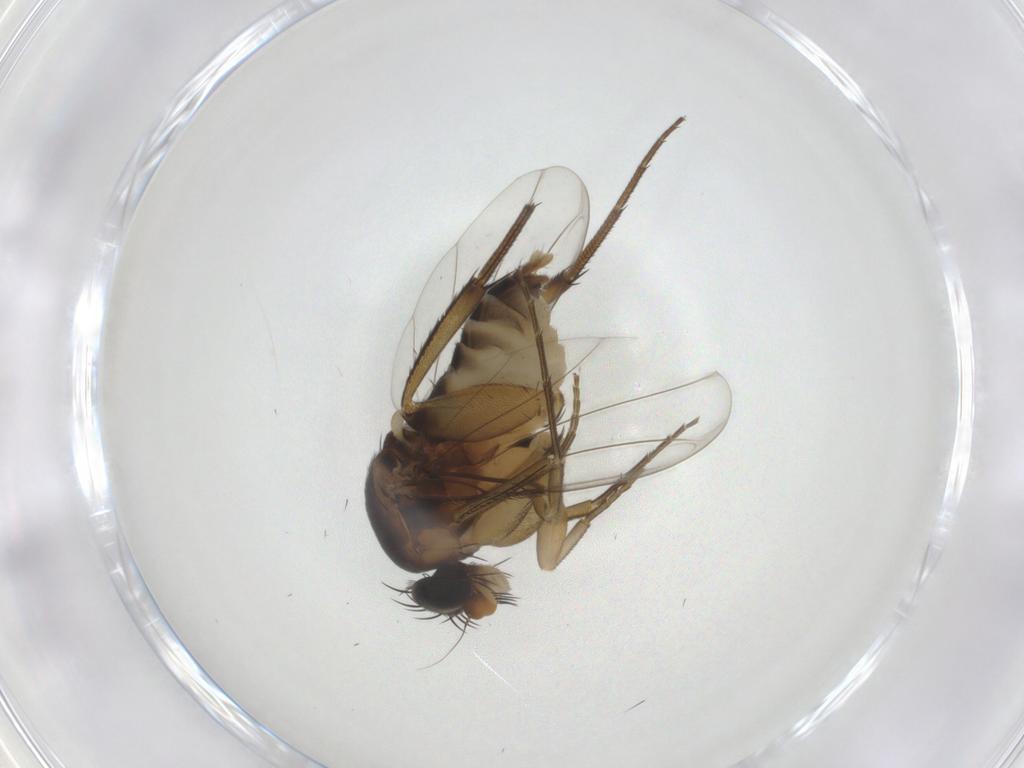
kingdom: Animalia
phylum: Arthropoda
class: Insecta
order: Diptera
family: Phoridae
